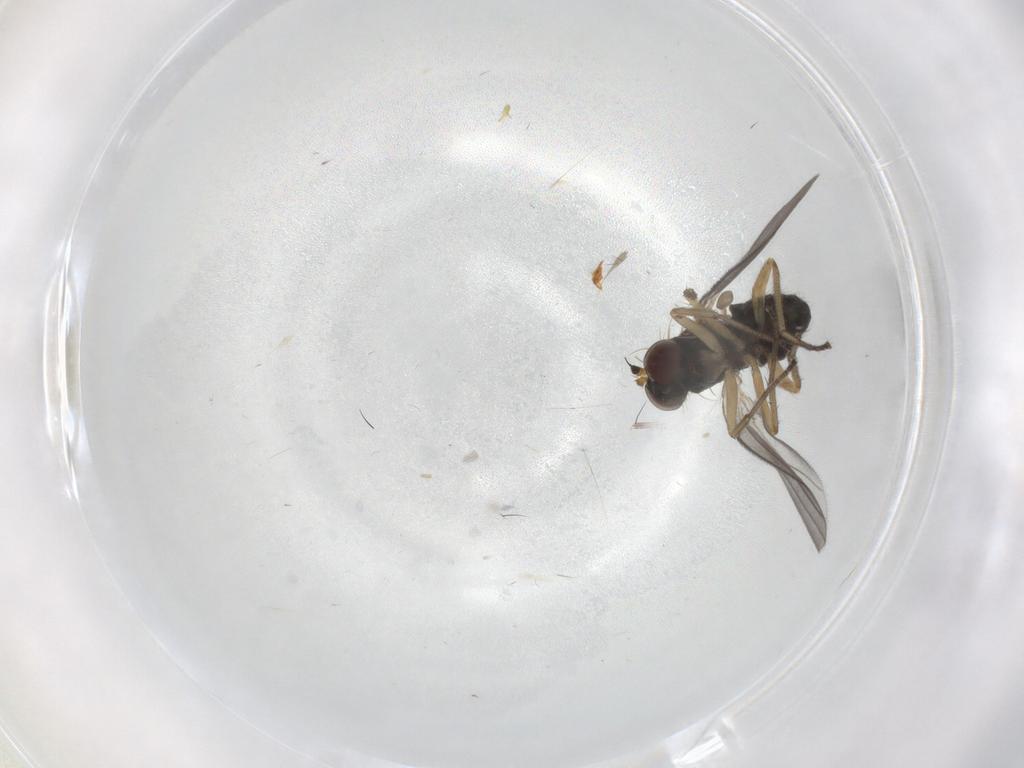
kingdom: Animalia
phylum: Arthropoda
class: Insecta
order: Diptera
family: Dolichopodidae
